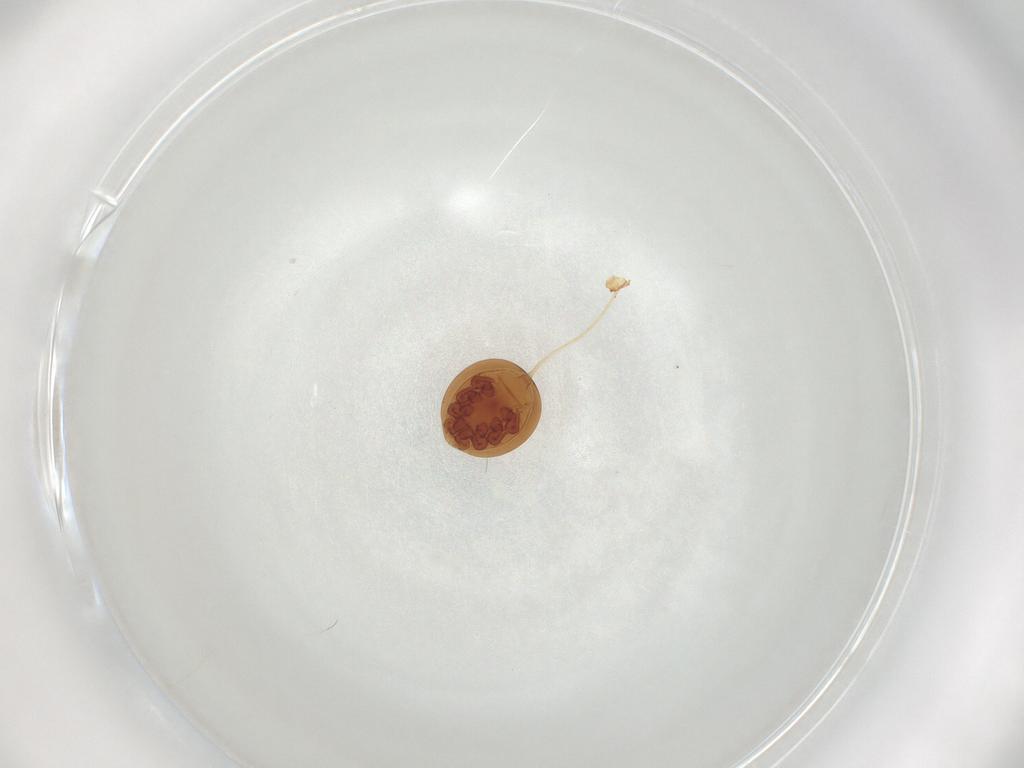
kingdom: Animalia
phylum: Arthropoda
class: Arachnida
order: Mesostigmata
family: Uropodidae
